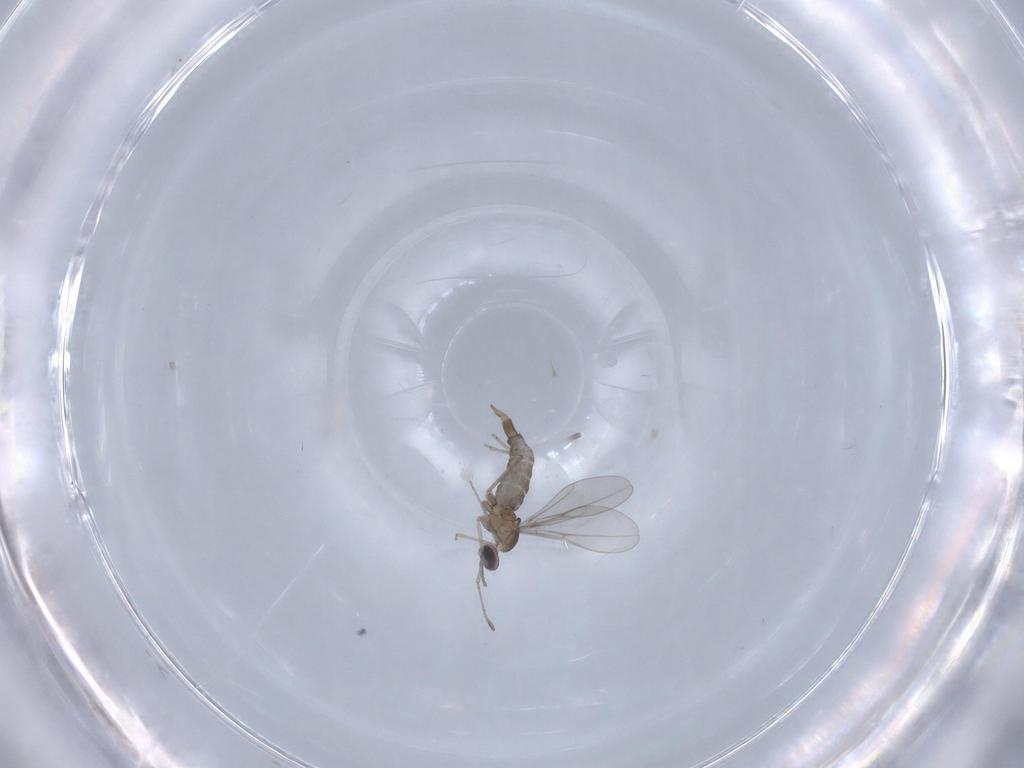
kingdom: Animalia
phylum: Arthropoda
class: Insecta
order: Diptera
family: Cecidomyiidae
